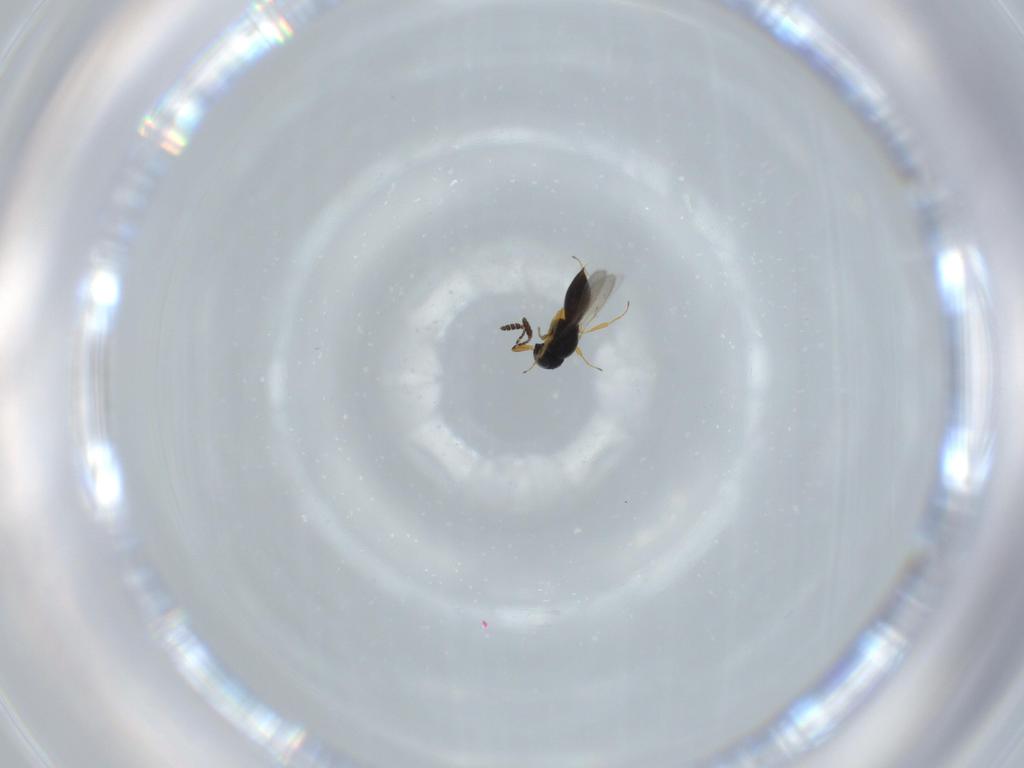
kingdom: Animalia
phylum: Arthropoda
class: Insecta
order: Hymenoptera
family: Scelionidae
